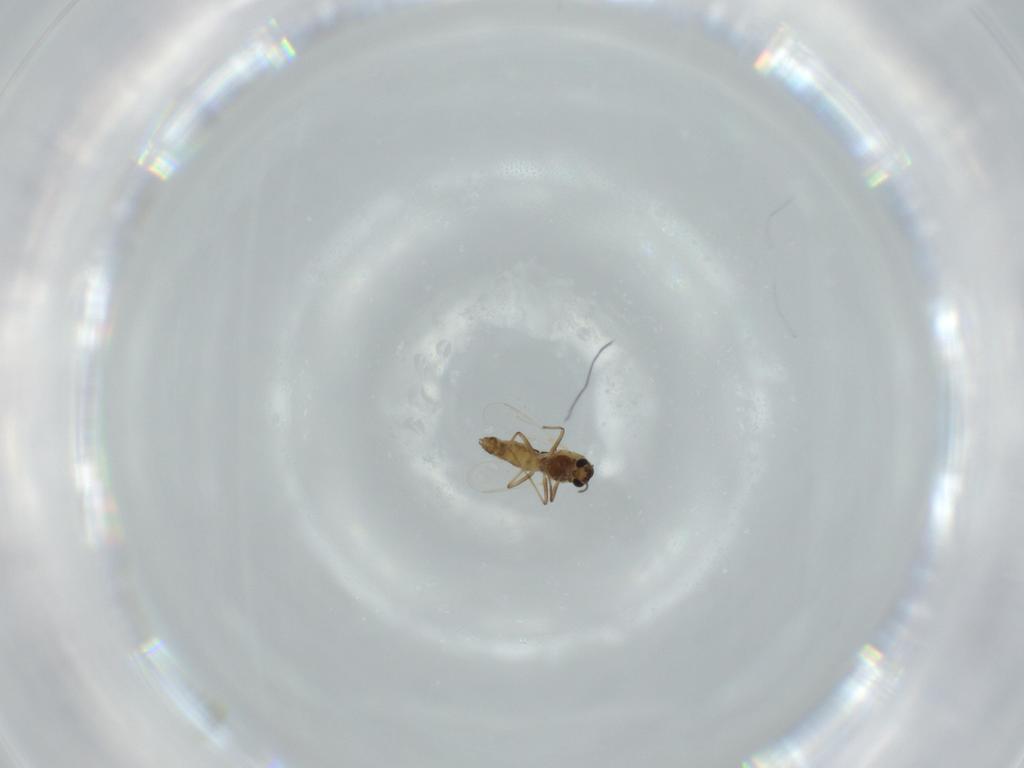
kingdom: Animalia
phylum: Arthropoda
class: Insecta
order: Diptera
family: Chironomidae
